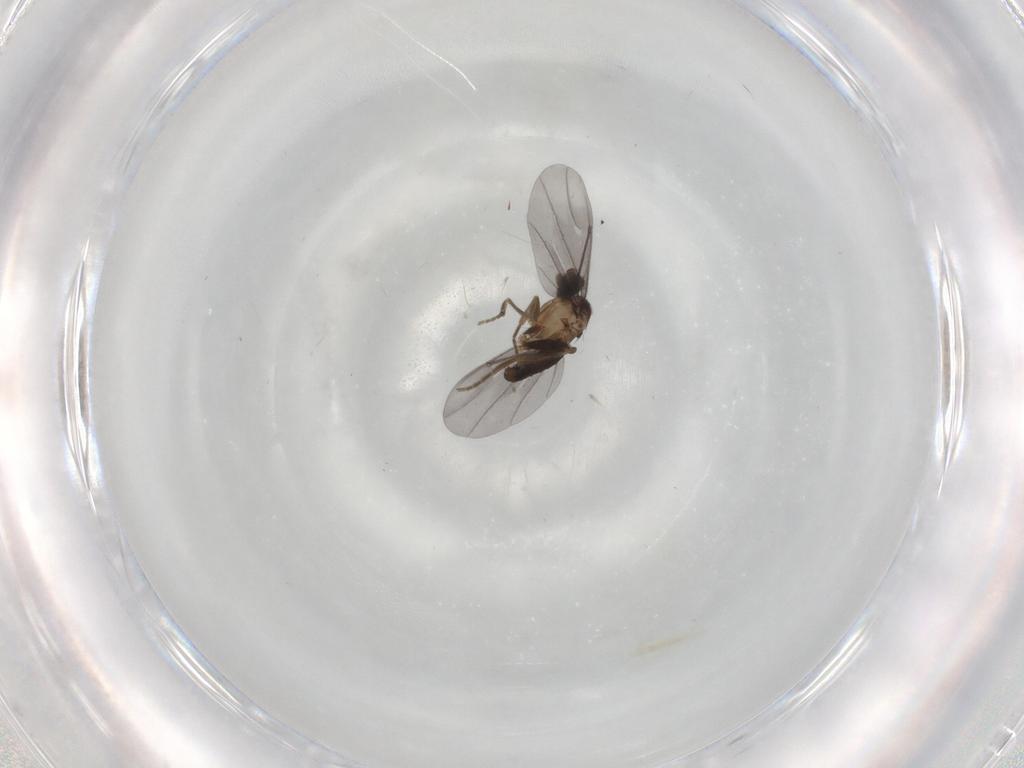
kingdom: Animalia
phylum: Arthropoda
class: Insecta
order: Diptera
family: Phoridae
